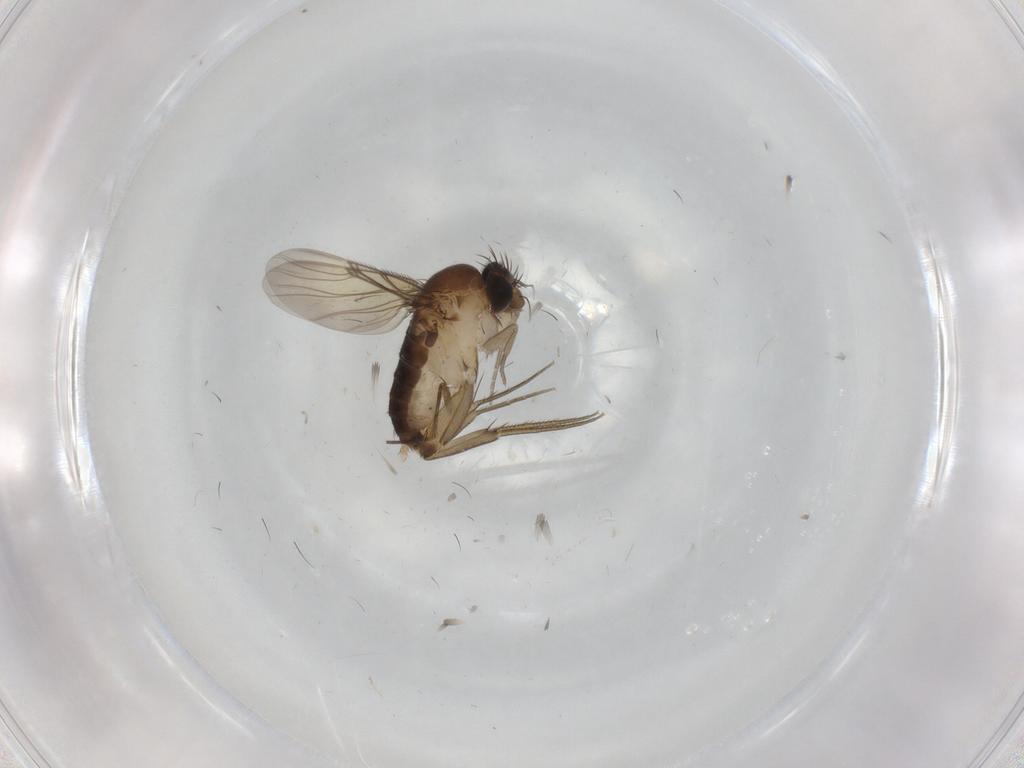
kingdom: Animalia
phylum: Arthropoda
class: Insecta
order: Diptera
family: Phoridae
